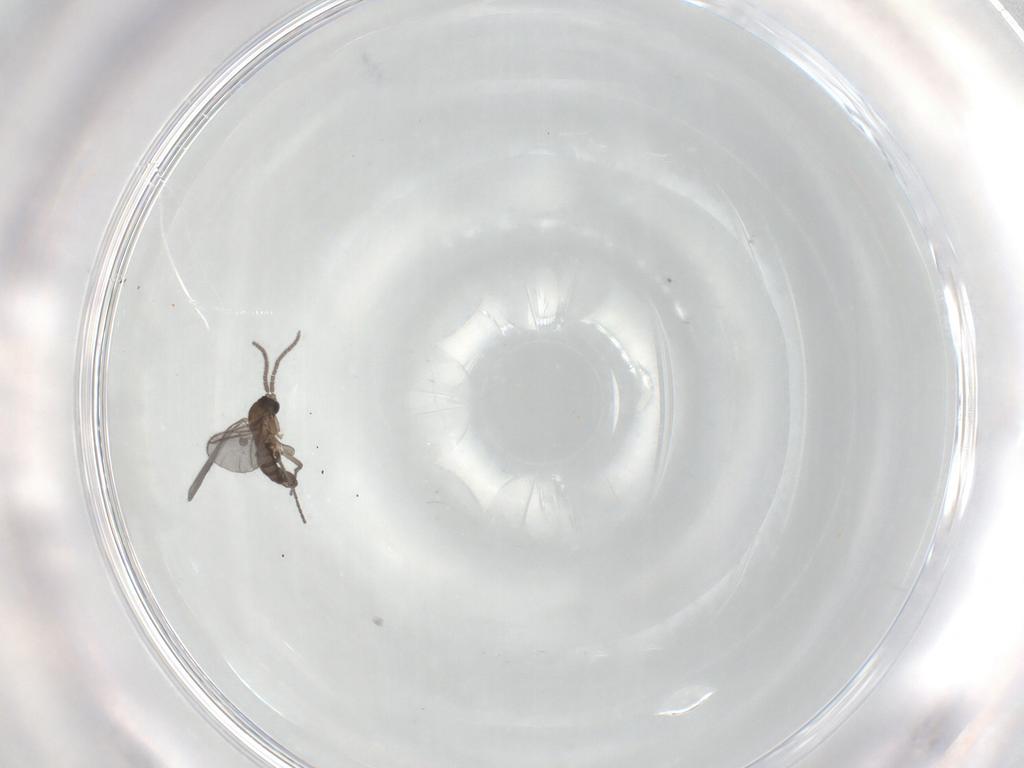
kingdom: Animalia
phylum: Arthropoda
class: Insecta
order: Diptera
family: Sciaridae
